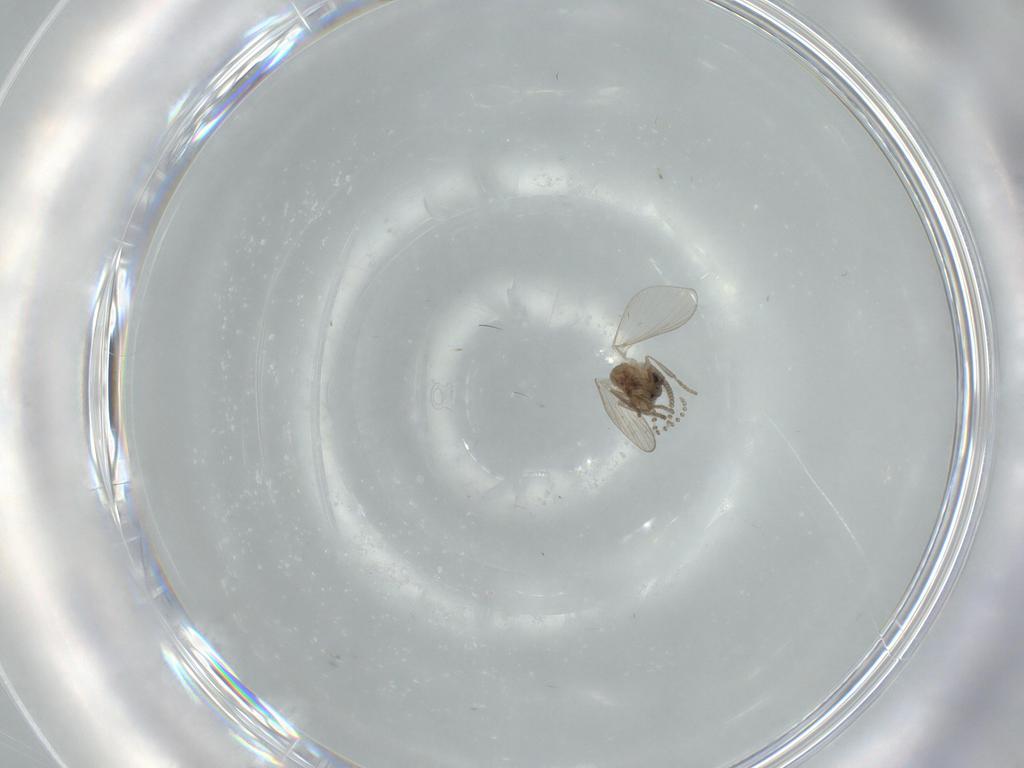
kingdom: Animalia
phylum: Arthropoda
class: Insecta
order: Diptera
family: Psychodidae
